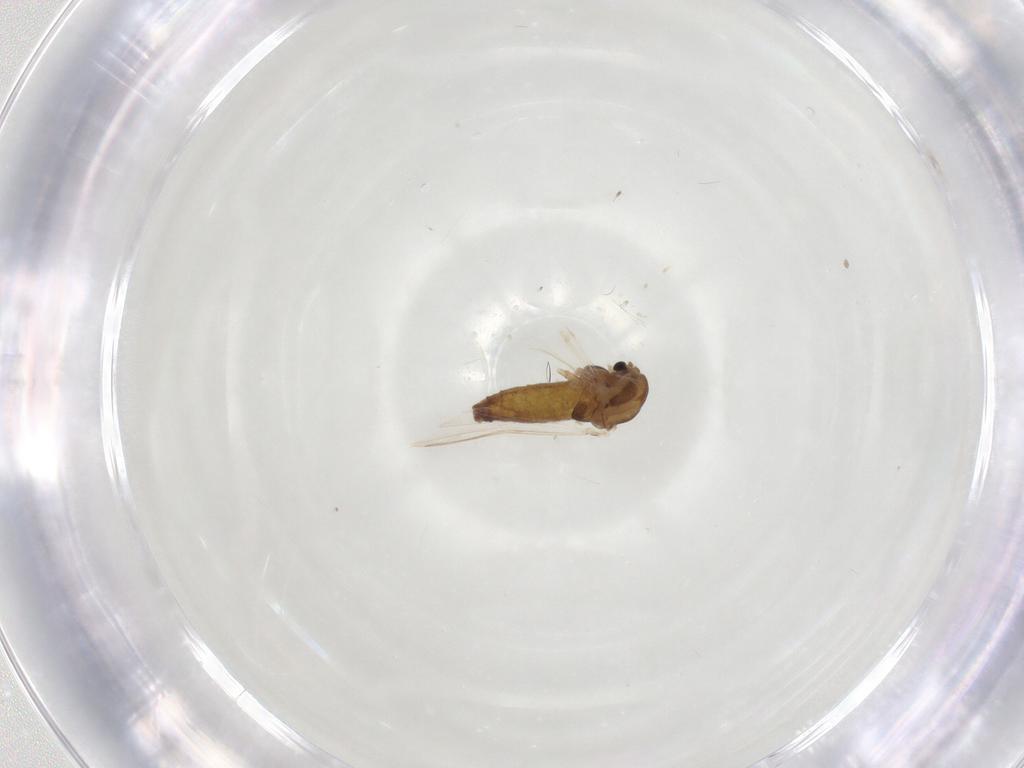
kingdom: Animalia
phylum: Arthropoda
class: Insecta
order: Diptera
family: Chironomidae
